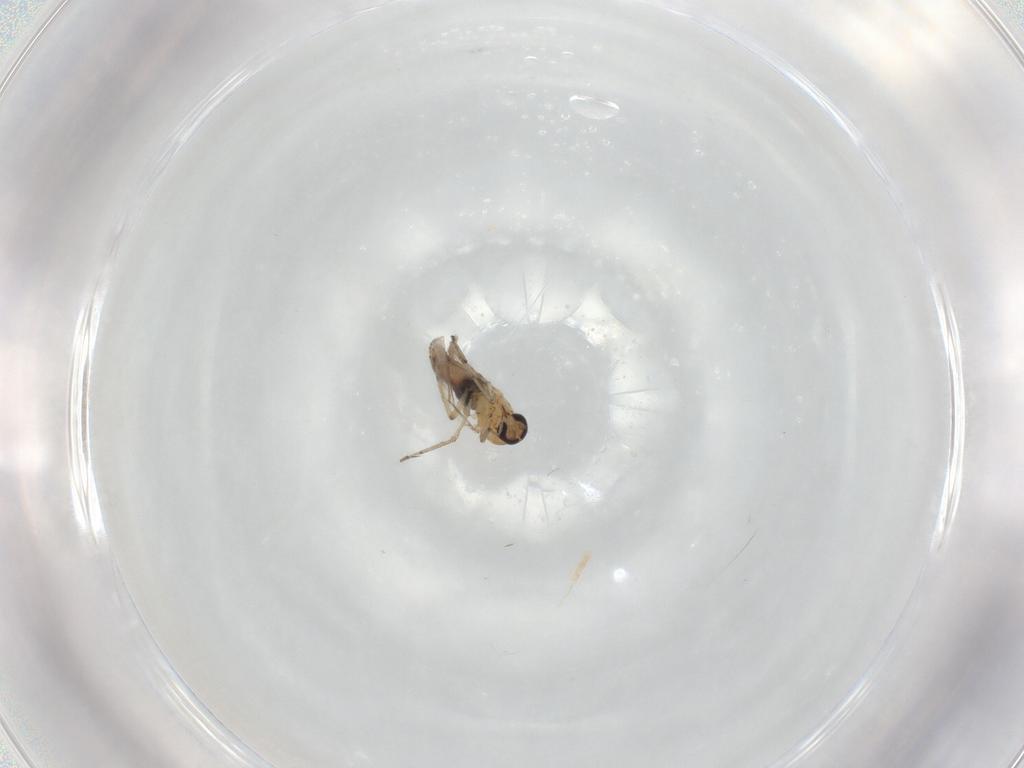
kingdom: Animalia
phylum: Arthropoda
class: Insecta
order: Diptera
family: Ceratopogonidae
